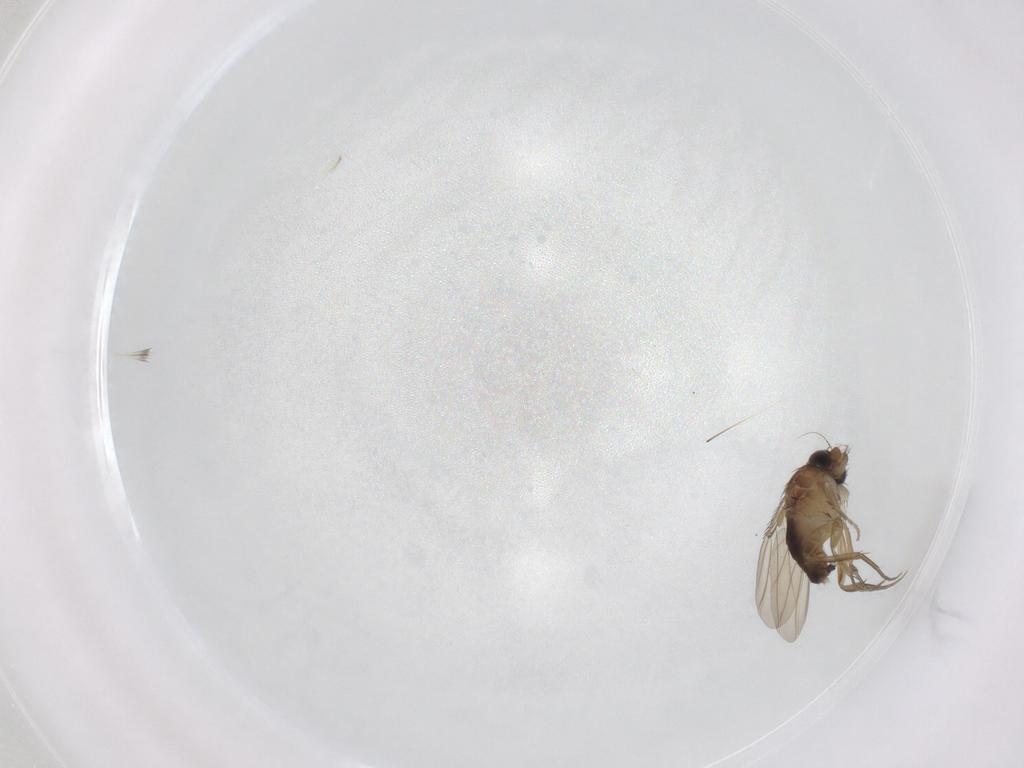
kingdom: Animalia
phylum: Arthropoda
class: Insecta
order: Diptera
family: Phoridae
